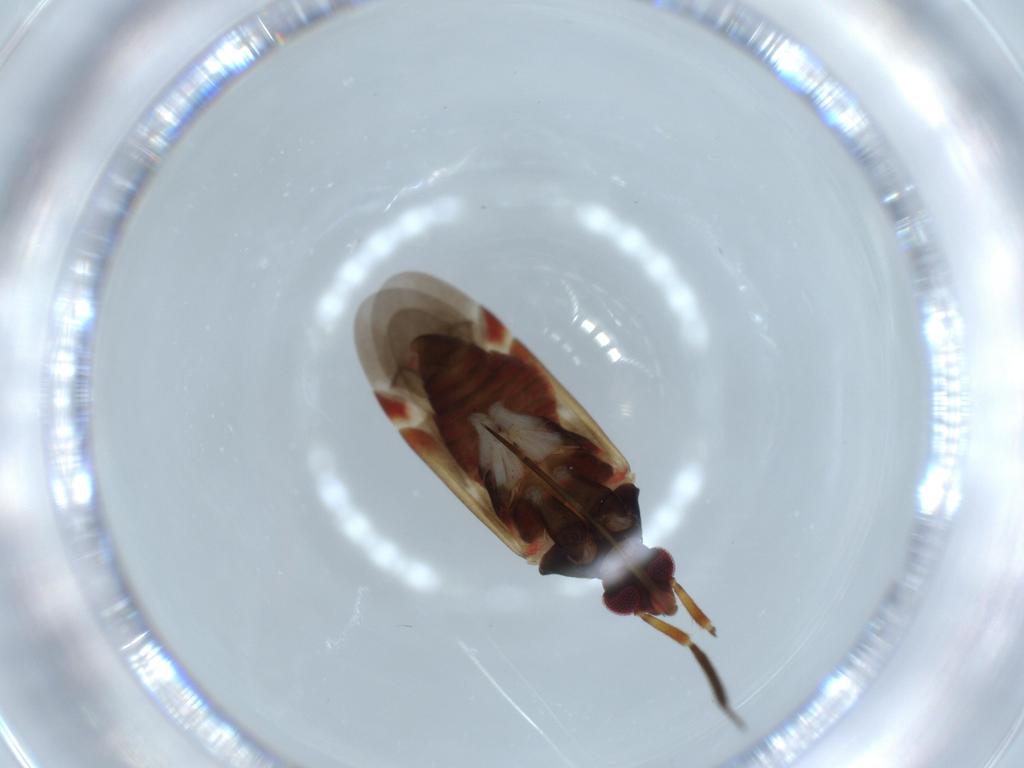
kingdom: Animalia
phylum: Arthropoda
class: Insecta
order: Hemiptera
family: Miridae
